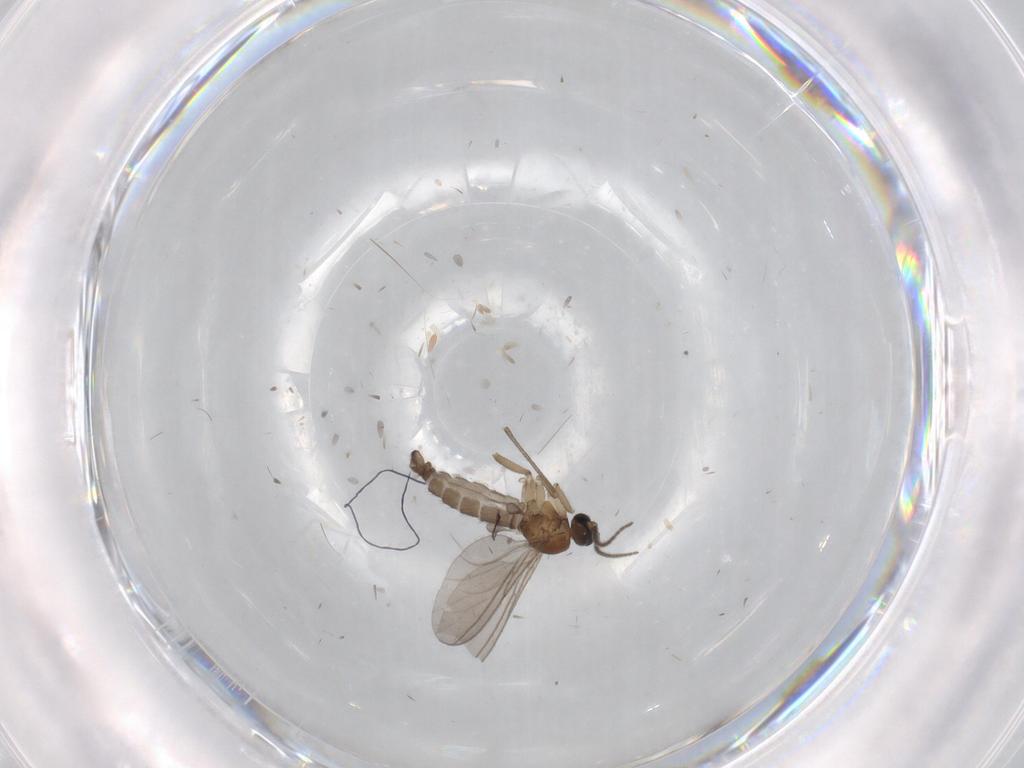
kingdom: Animalia
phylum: Arthropoda
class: Insecta
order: Diptera
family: Sciaridae
